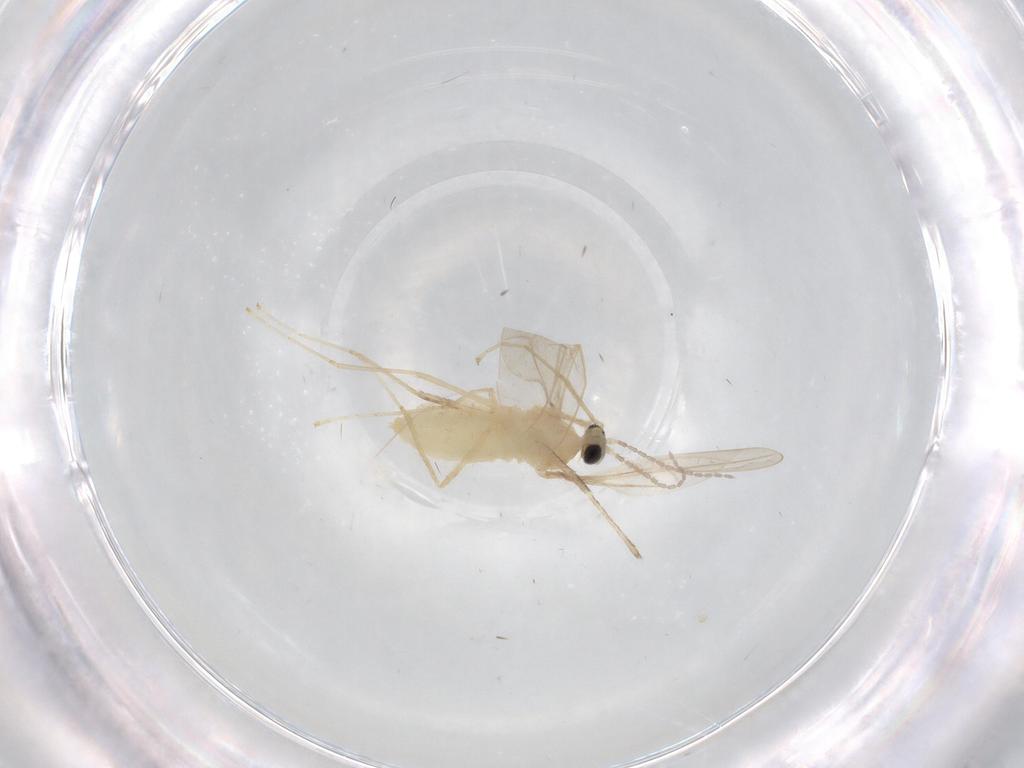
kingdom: Animalia
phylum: Arthropoda
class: Insecta
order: Diptera
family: Cecidomyiidae
